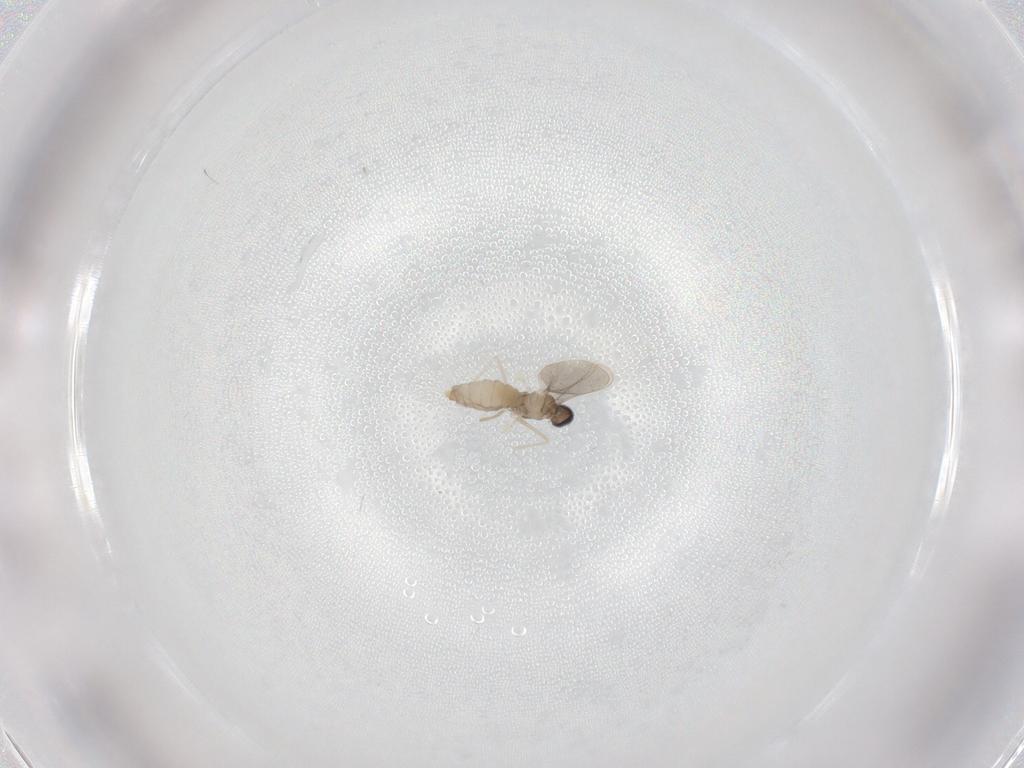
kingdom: Animalia
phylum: Arthropoda
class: Insecta
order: Diptera
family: Cecidomyiidae
